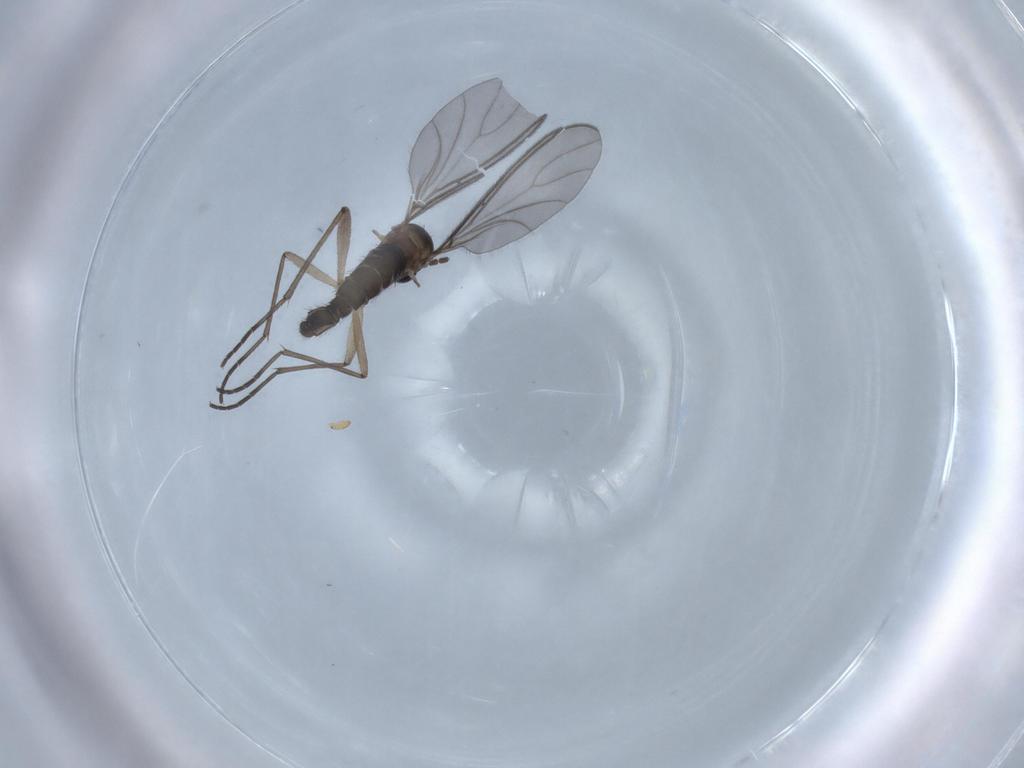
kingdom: Animalia
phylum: Arthropoda
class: Insecta
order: Diptera
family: Sciaridae
